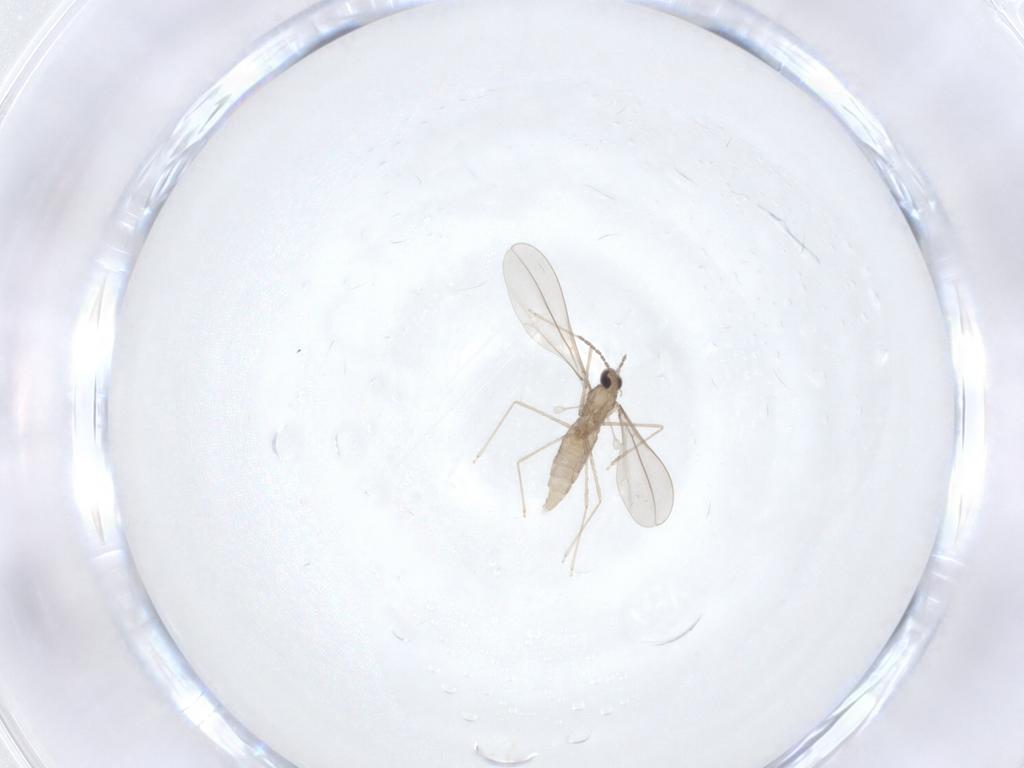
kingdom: Animalia
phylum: Arthropoda
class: Insecta
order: Diptera
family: Cecidomyiidae
